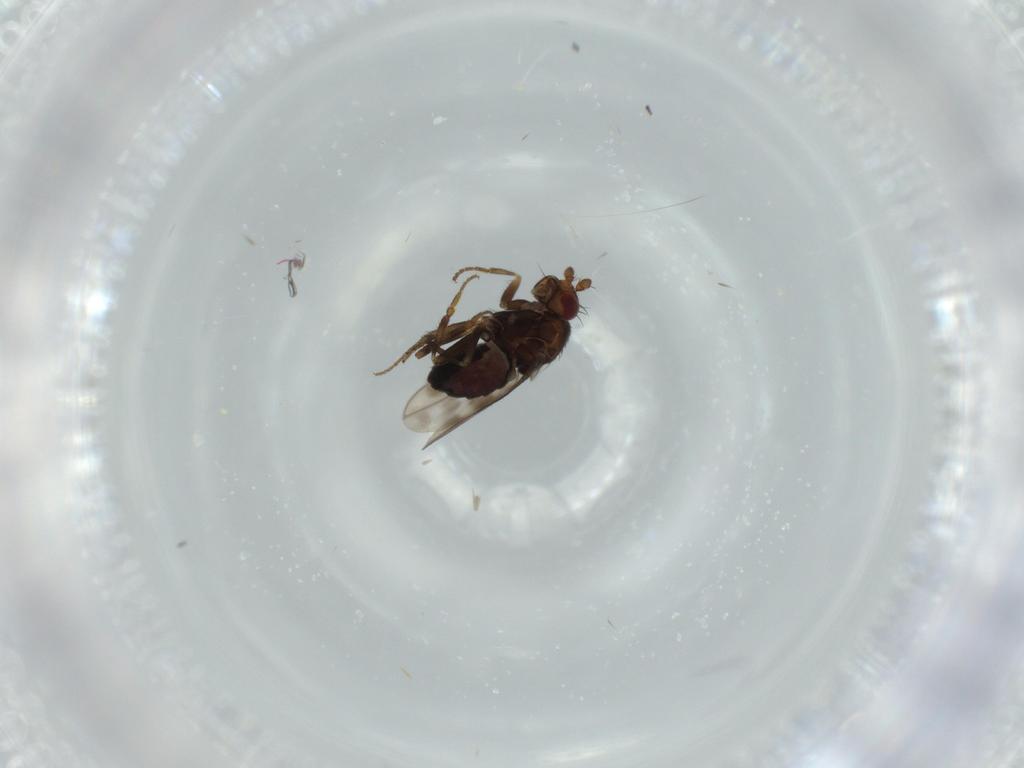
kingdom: Animalia
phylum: Arthropoda
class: Insecta
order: Diptera
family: Sphaeroceridae
